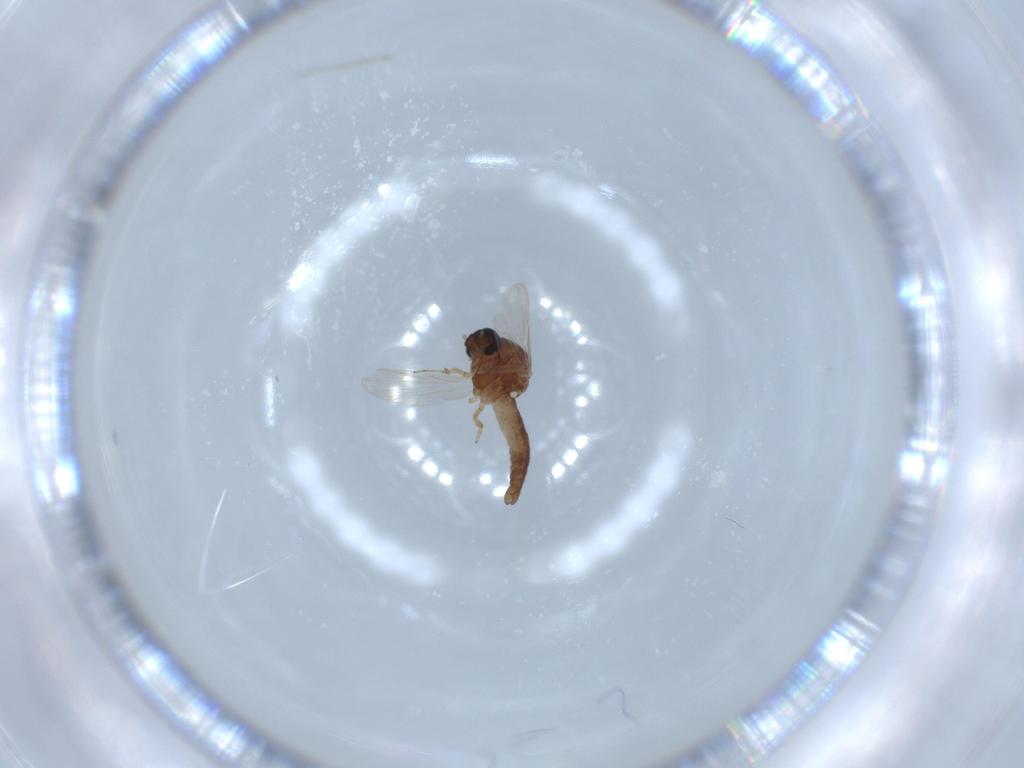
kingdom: Animalia
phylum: Arthropoda
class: Insecta
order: Diptera
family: Ceratopogonidae
